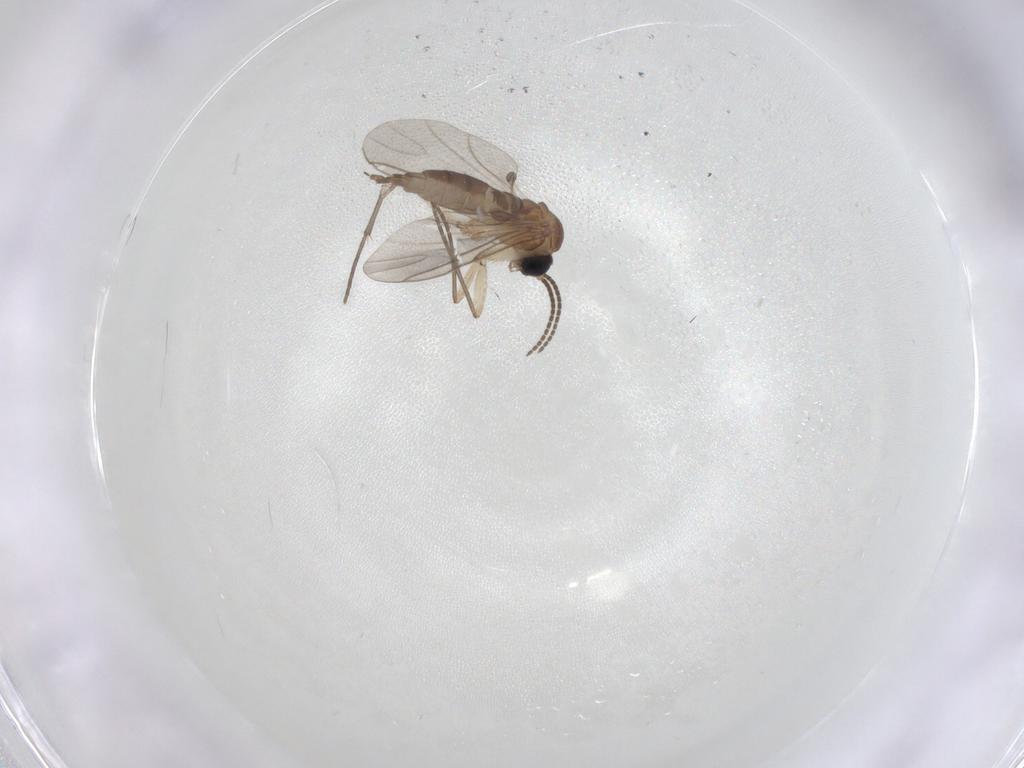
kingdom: Animalia
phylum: Arthropoda
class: Insecta
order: Diptera
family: Sciaridae
